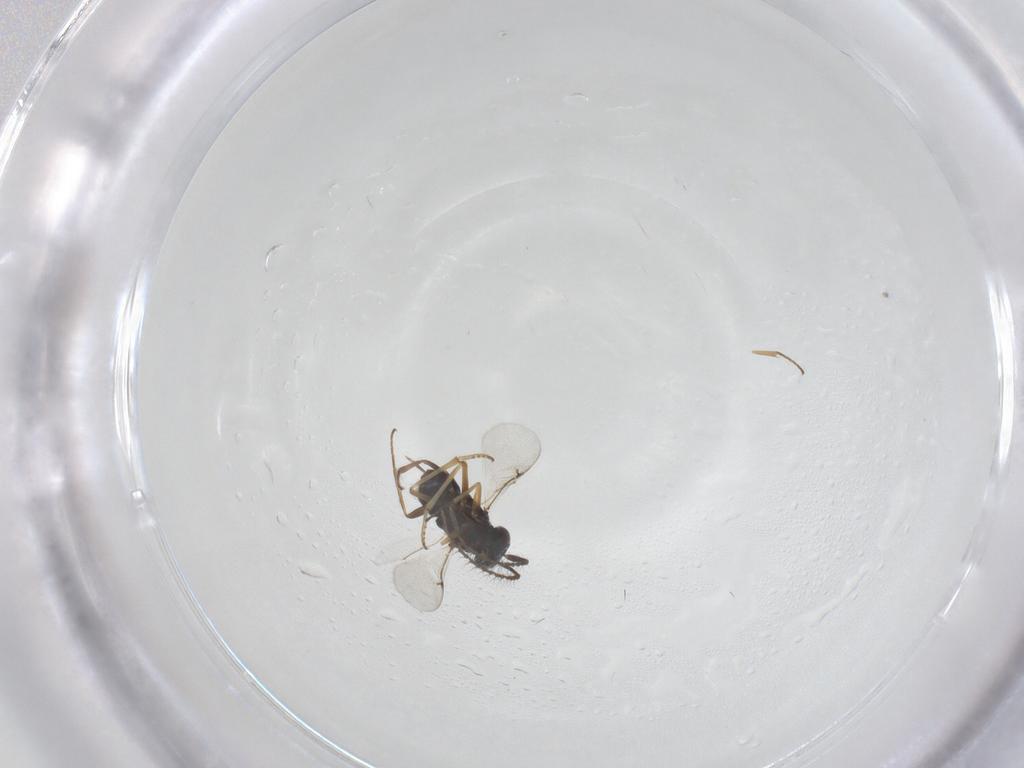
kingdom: Animalia
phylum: Arthropoda
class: Insecta
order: Hymenoptera
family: Encyrtidae
